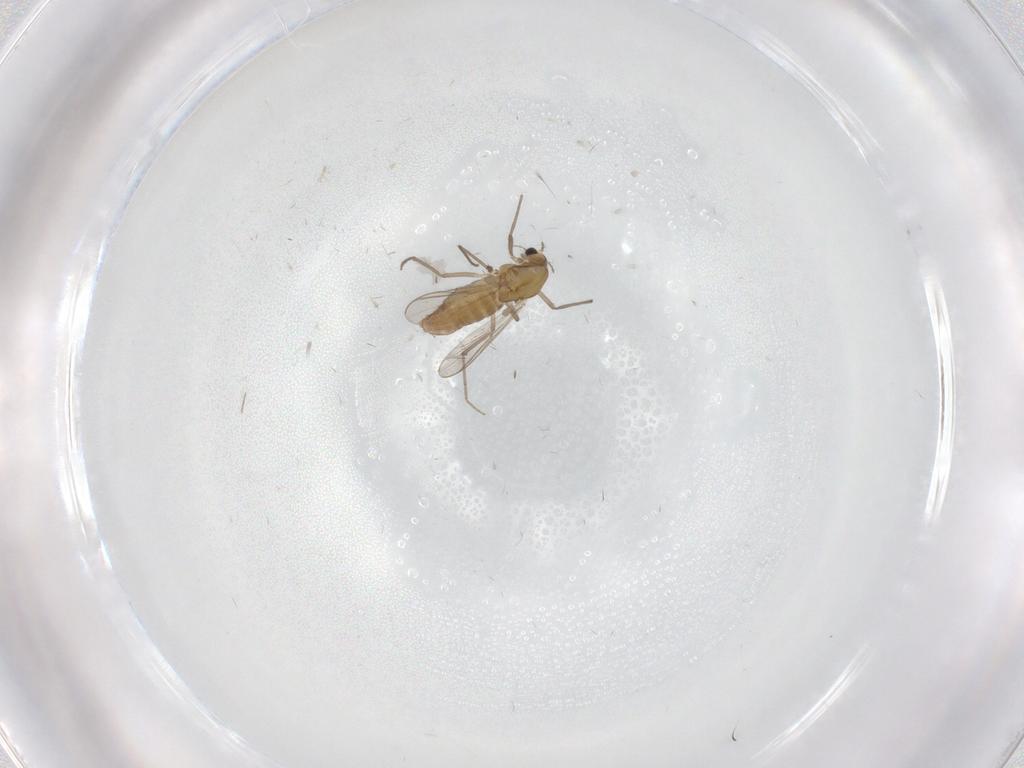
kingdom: Animalia
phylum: Arthropoda
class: Insecta
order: Diptera
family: Chironomidae
